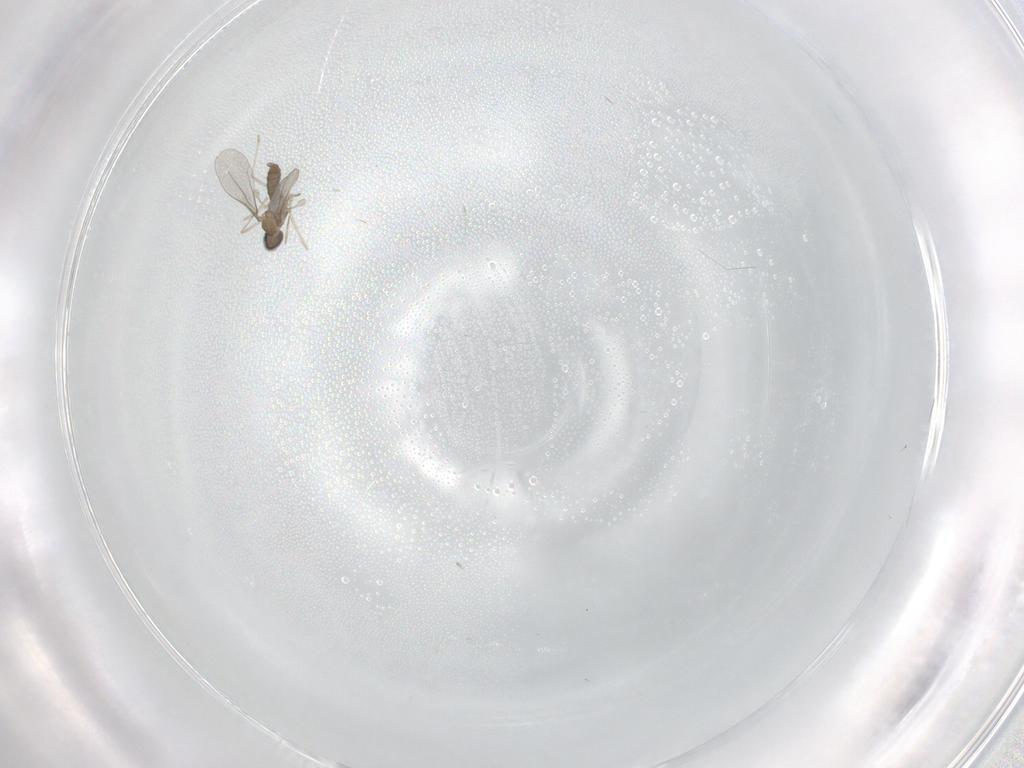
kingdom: Animalia
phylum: Arthropoda
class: Insecta
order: Diptera
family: Cecidomyiidae
